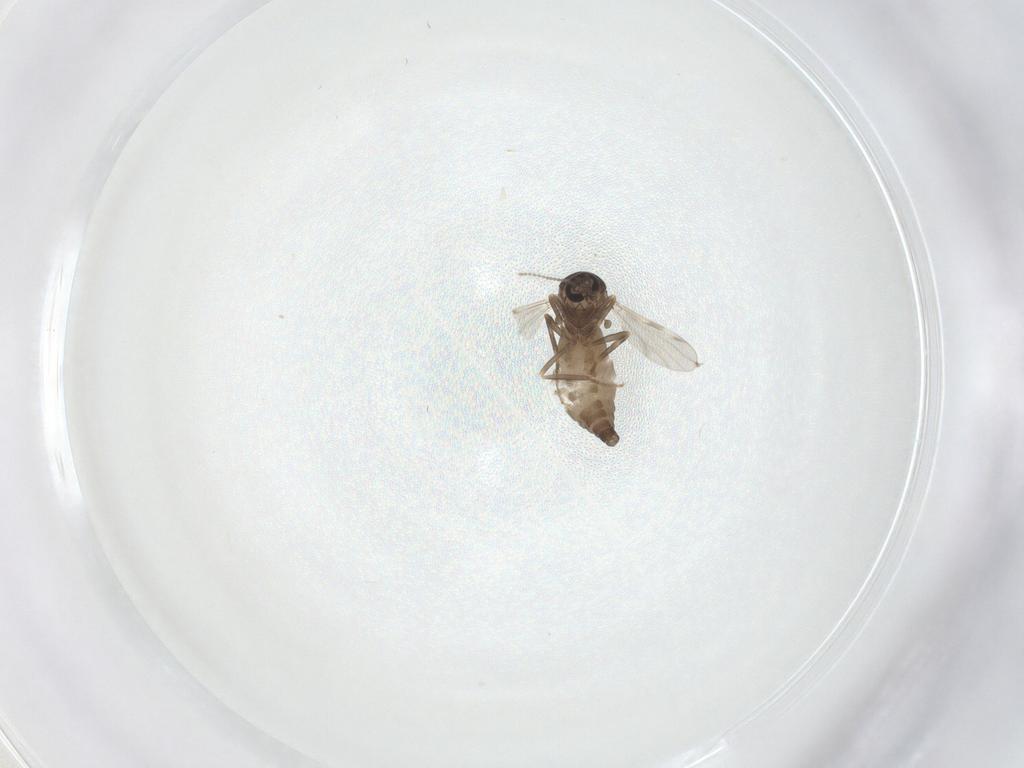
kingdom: Animalia
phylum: Arthropoda
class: Insecta
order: Diptera
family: Ceratopogonidae
